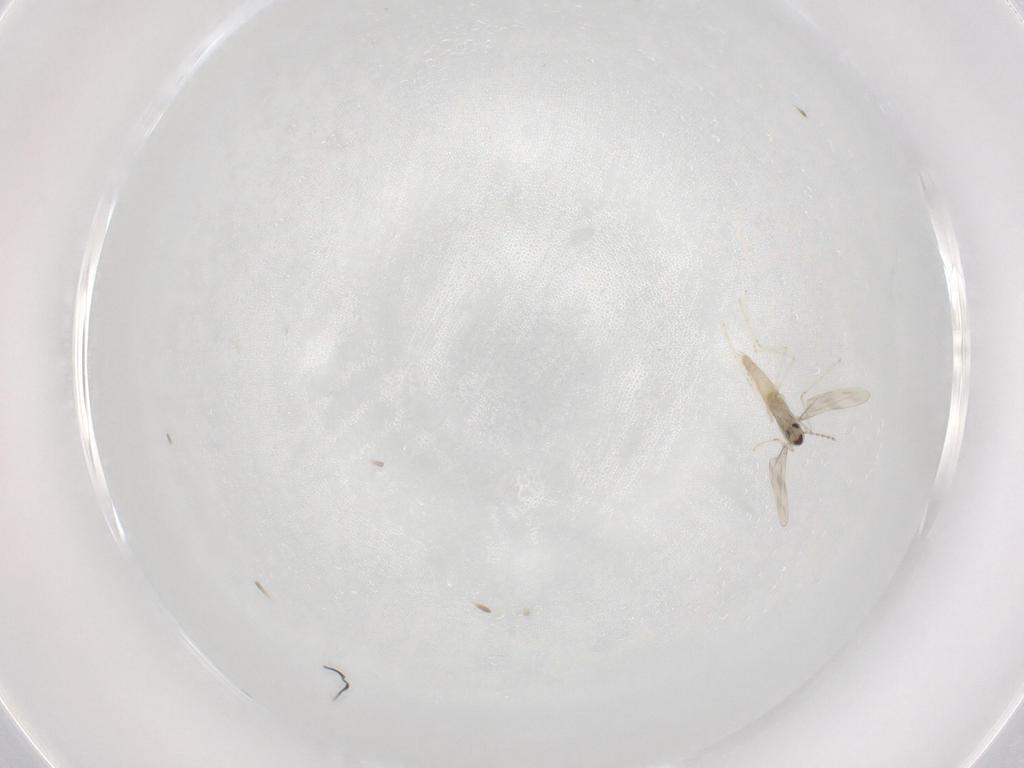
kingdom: Animalia
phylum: Arthropoda
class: Insecta
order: Diptera
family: Cecidomyiidae
